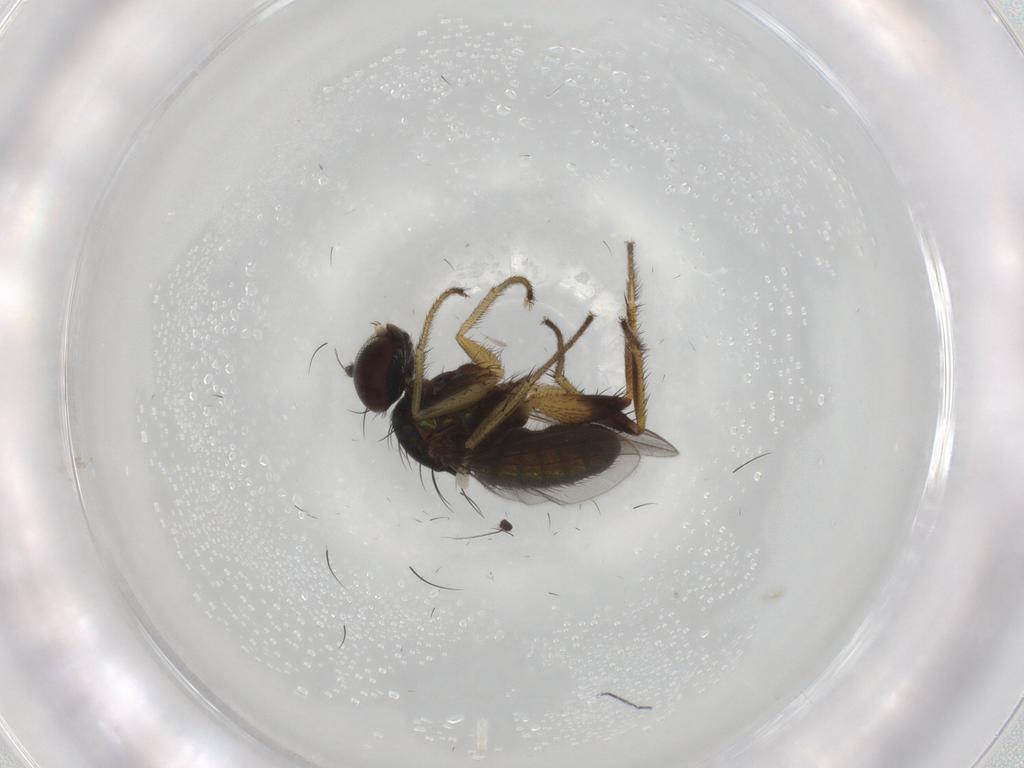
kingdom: Animalia
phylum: Arthropoda
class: Insecta
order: Diptera
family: Dolichopodidae
